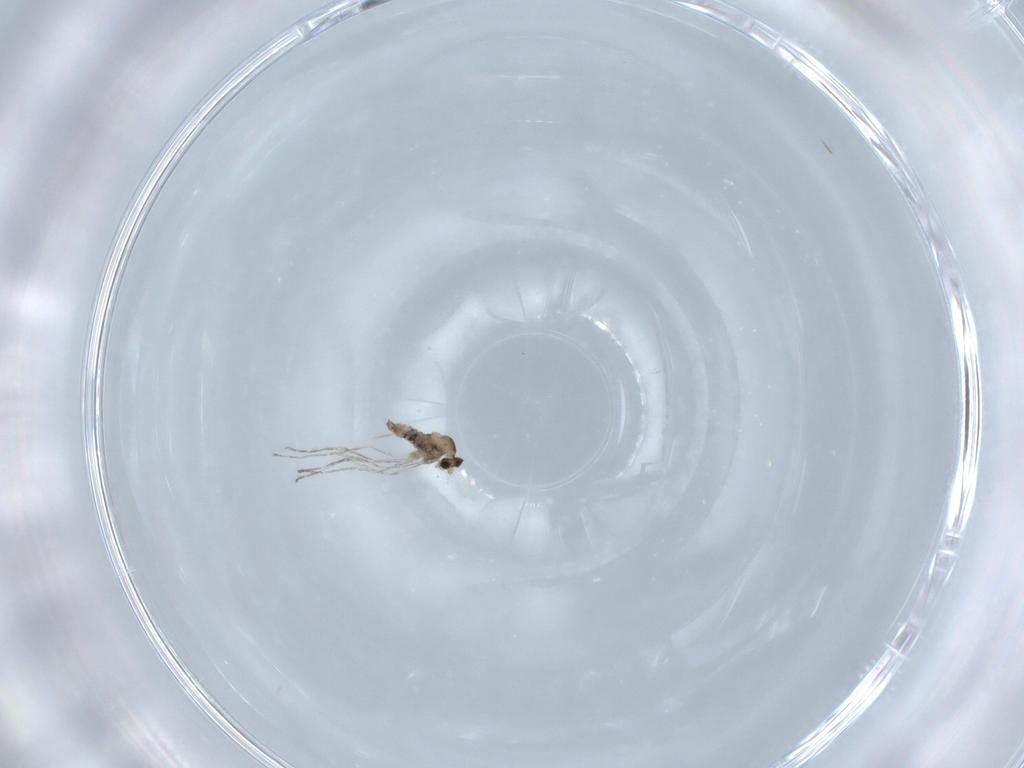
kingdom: Animalia
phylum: Arthropoda
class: Insecta
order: Diptera
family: Cecidomyiidae
